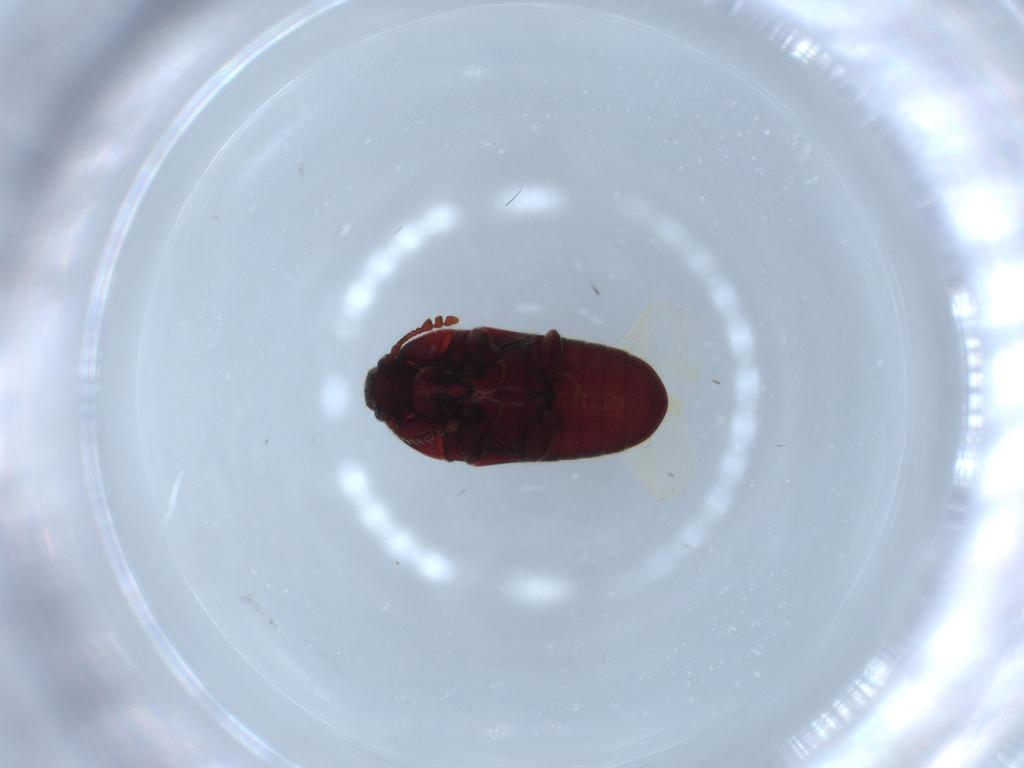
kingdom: Animalia
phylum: Arthropoda
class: Insecta
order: Coleoptera
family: Throscidae
